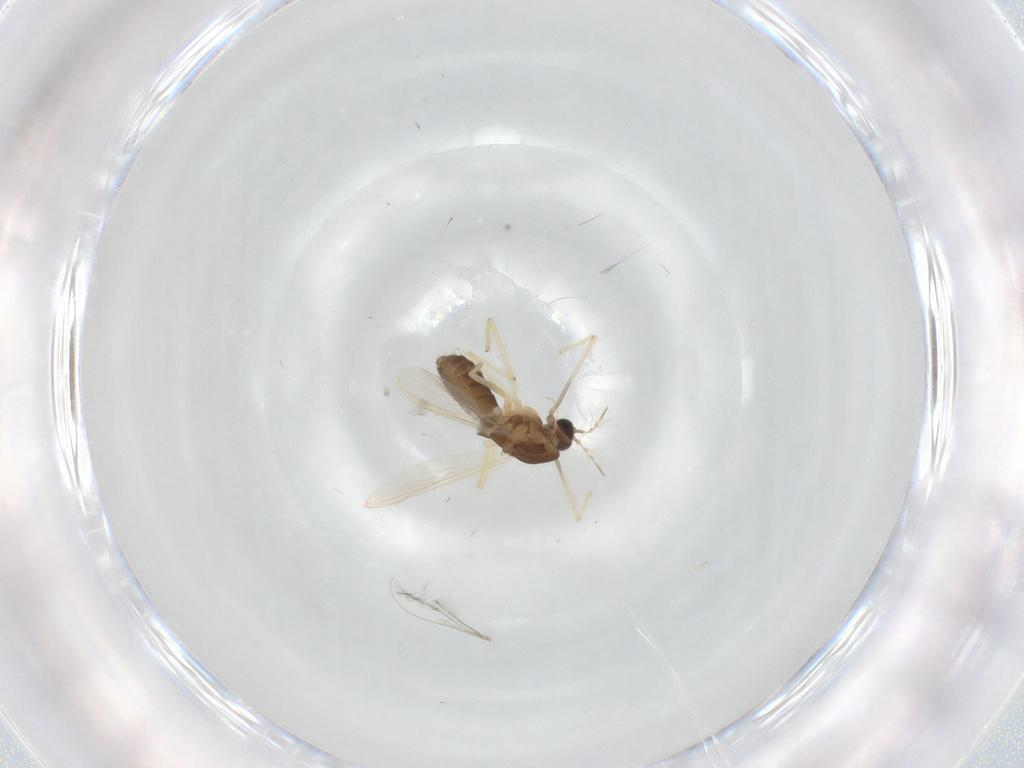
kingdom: Animalia
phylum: Arthropoda
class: Insecta
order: Diptera
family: Chironomidae
